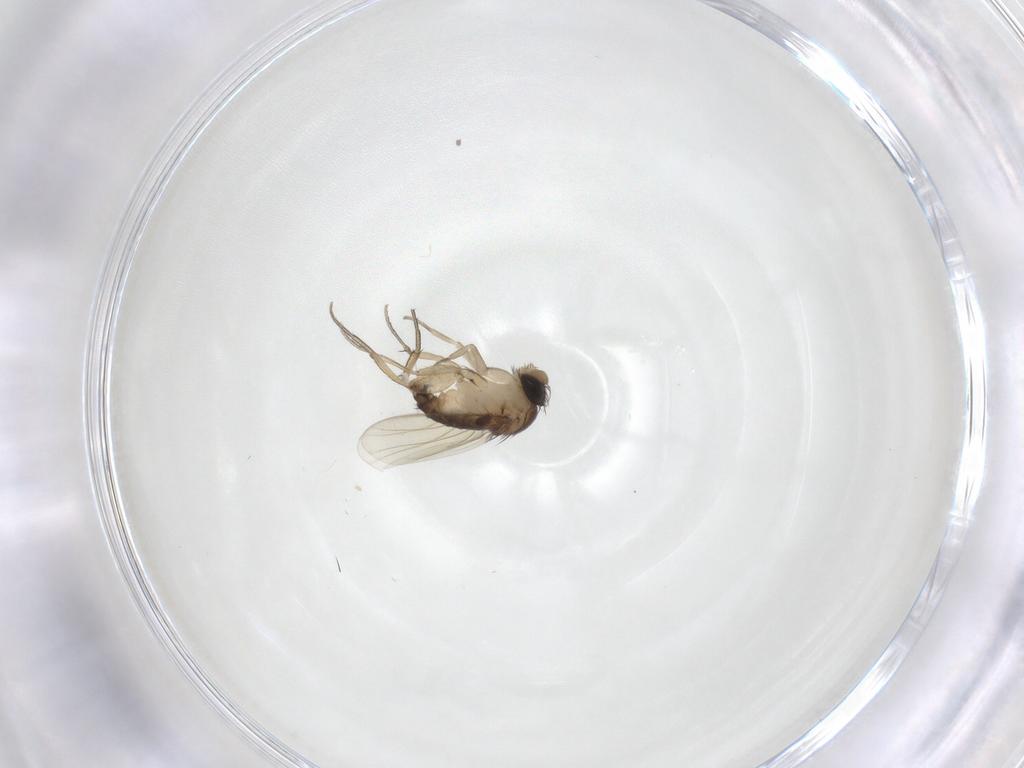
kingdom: Animalia
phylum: Arthropoda
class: Insecta
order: Diptera
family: Phoridae
